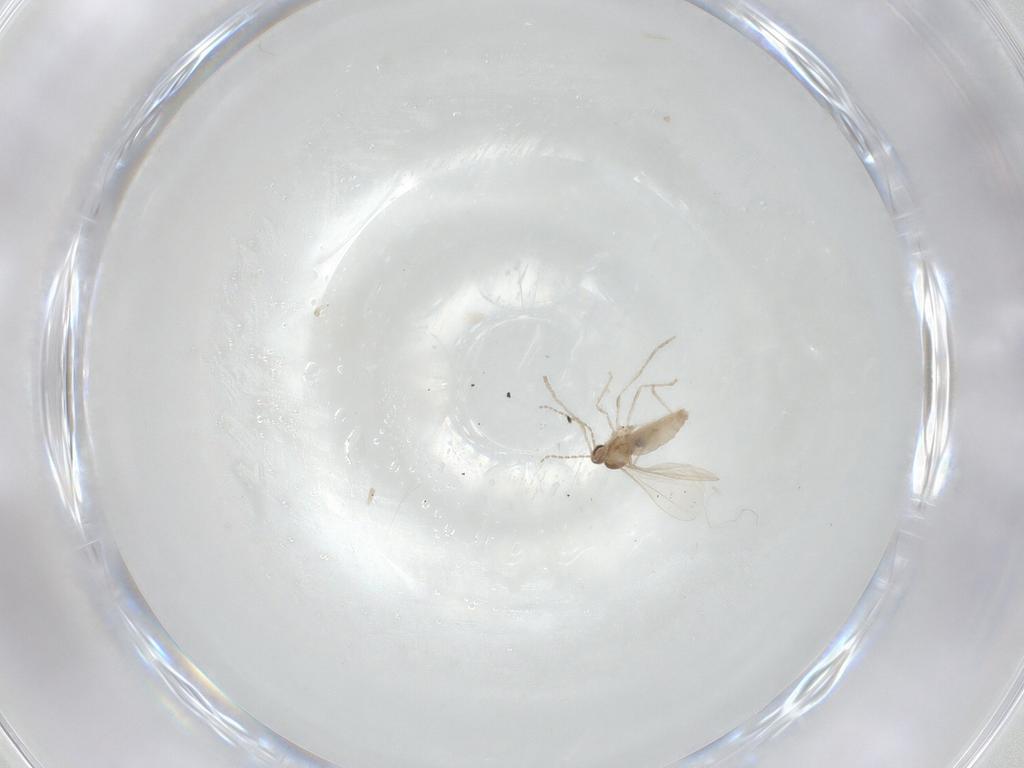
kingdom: Animalia
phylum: Arthropoda
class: Insecta
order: Diptera
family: Cecidomyiidae
